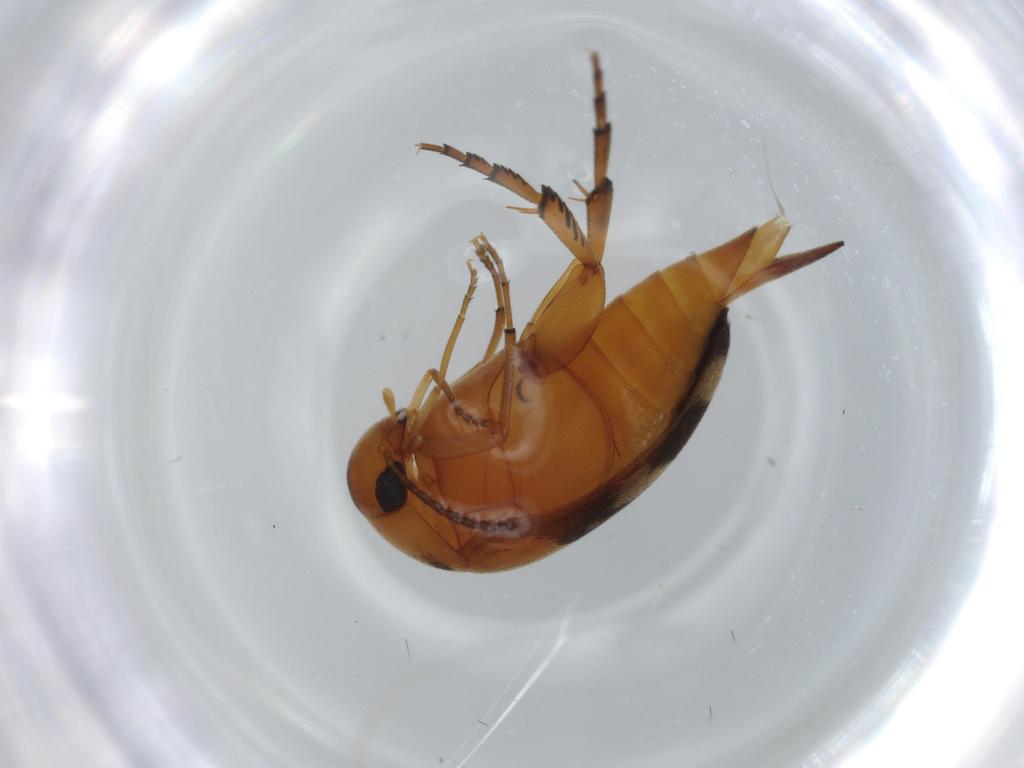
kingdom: Animalia
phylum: Arthropoda
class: Insecta
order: Coleoptera
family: Mordellidae
